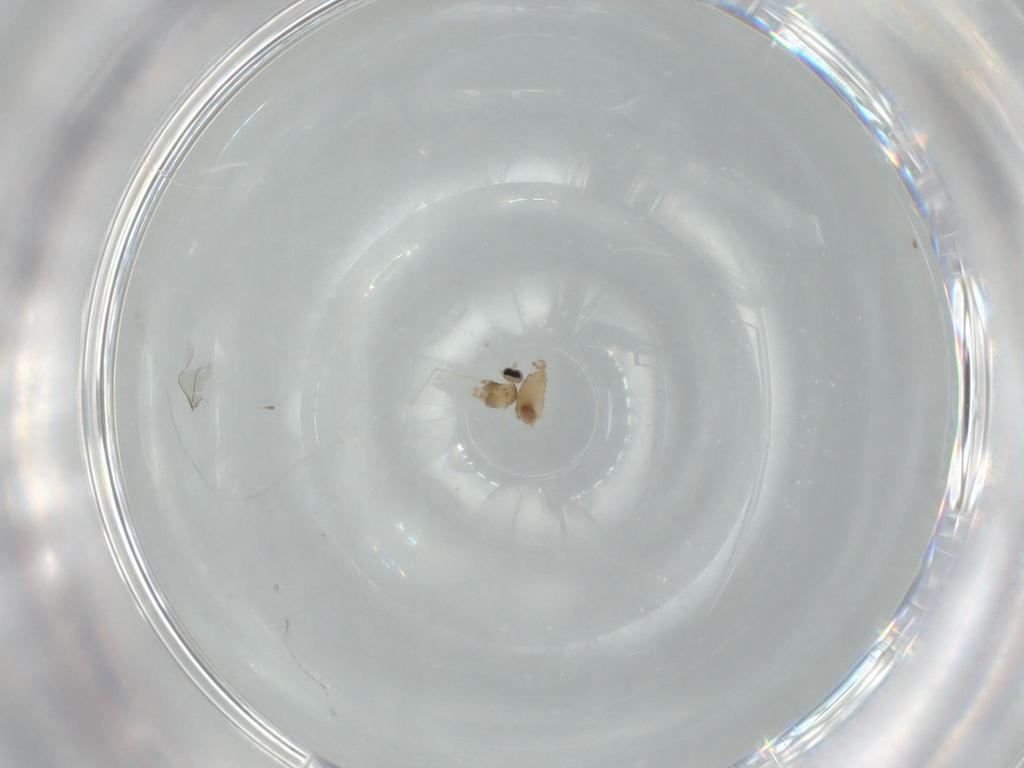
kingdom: Animalia
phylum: Arthropoda
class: Insecta
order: Diptera
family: Cecidomyiidae
